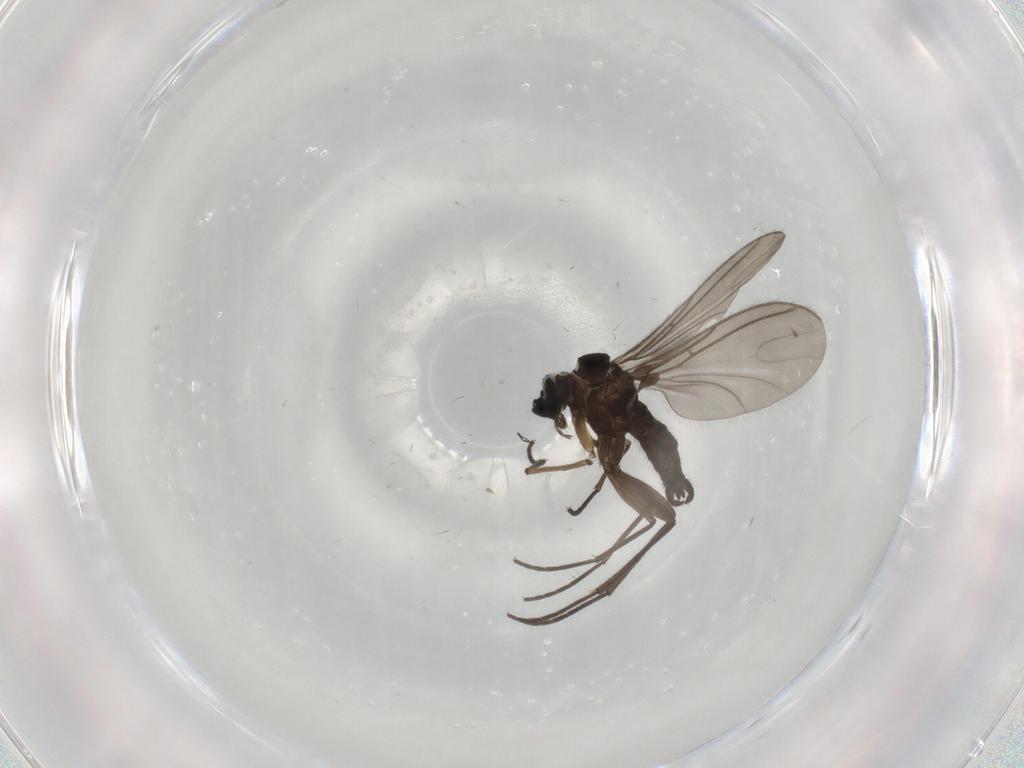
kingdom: Animalia
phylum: Arthropoda
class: Insecta
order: Diptera
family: Sciaridae
